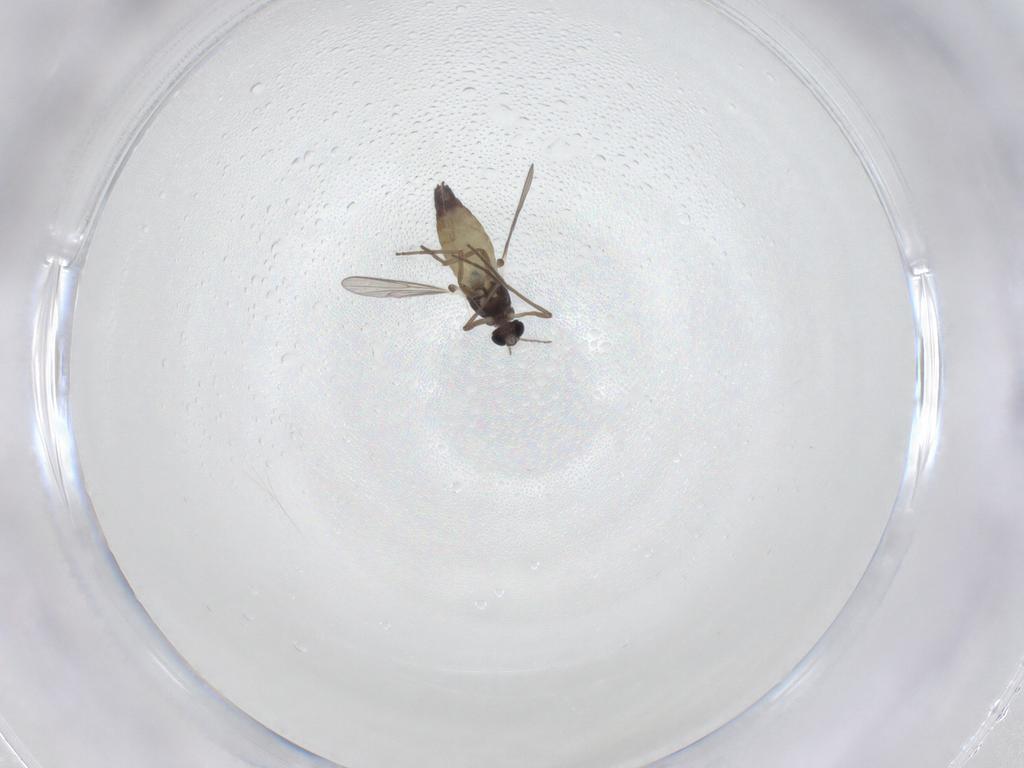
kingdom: Animalia
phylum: Arthropoda
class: Insecta
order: Diptera
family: Chironomidae
